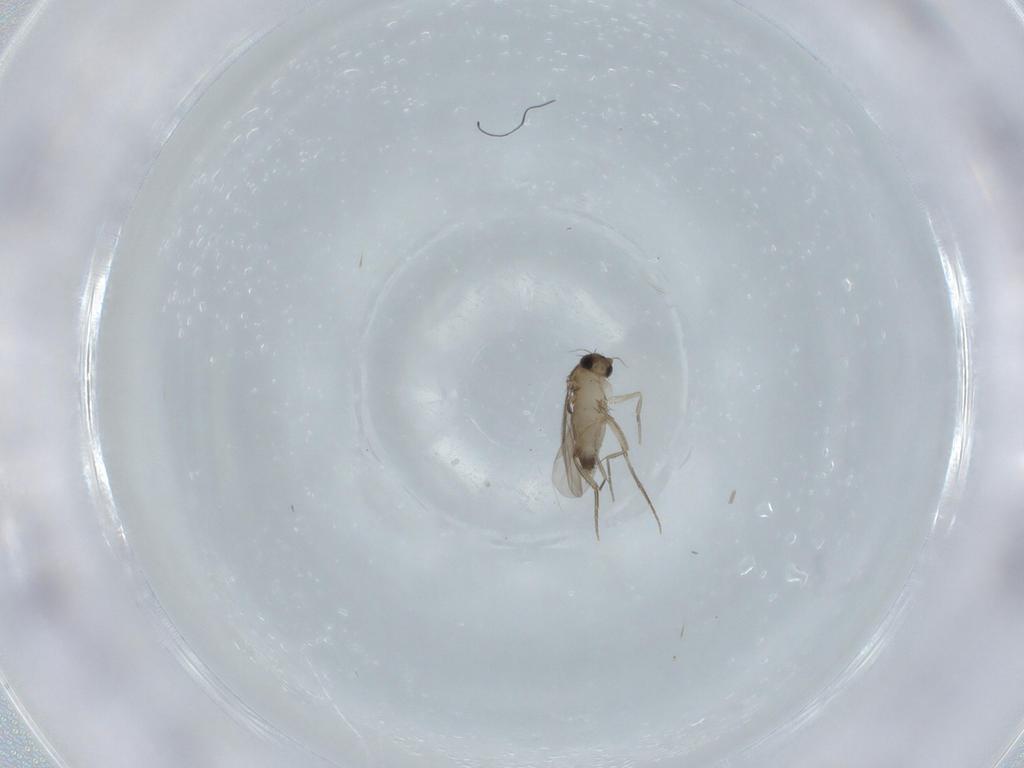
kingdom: Animalia
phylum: Arthropoda
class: Insecta
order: Diptera
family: Phoridae
